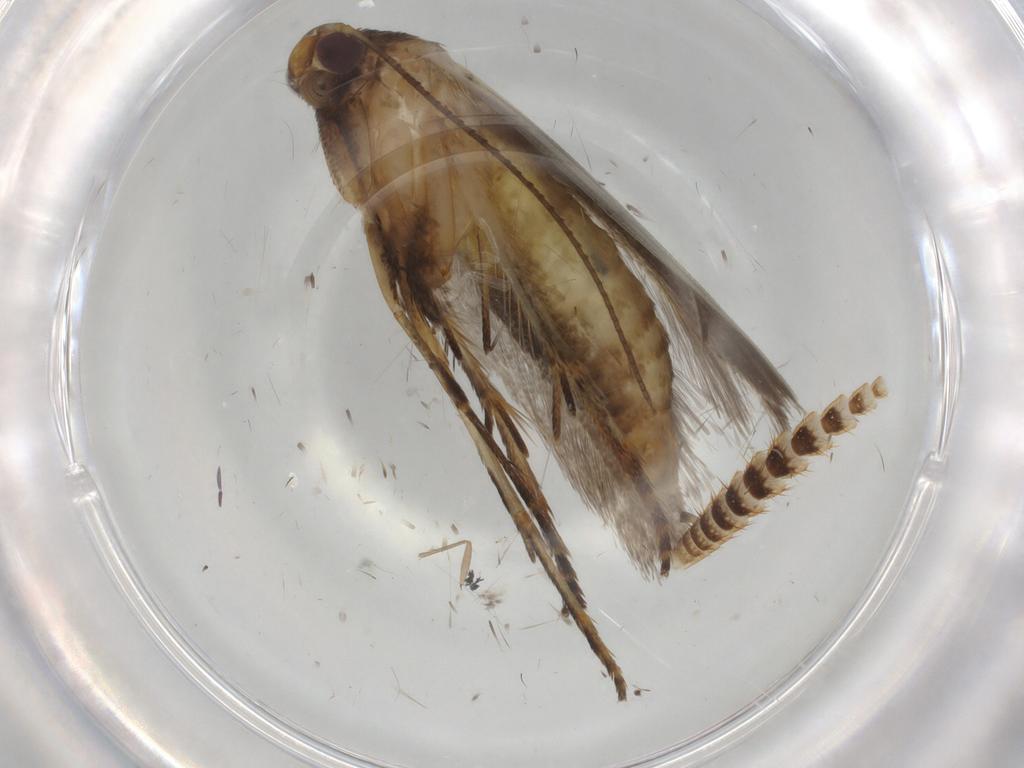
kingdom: Animalia
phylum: Arthropoda
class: Insecta
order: Lepidoptera
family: Epermeniidae
